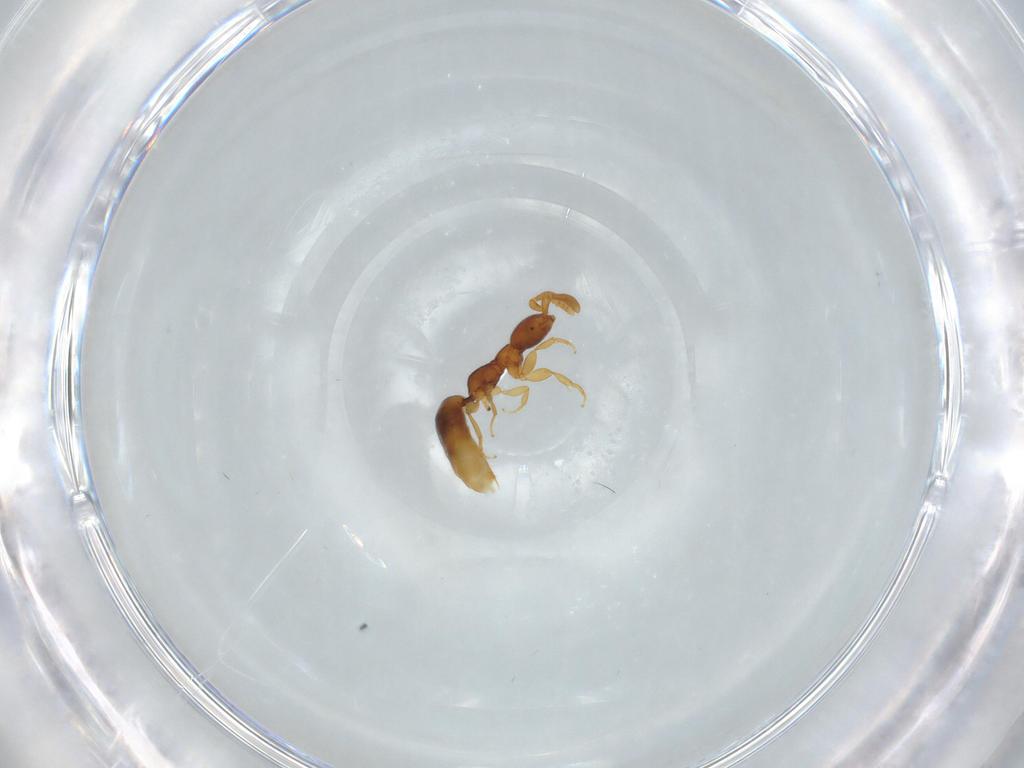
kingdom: Animalia
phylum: Arthropoda
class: Insecta
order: Hymenoptera
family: Bethylidae
